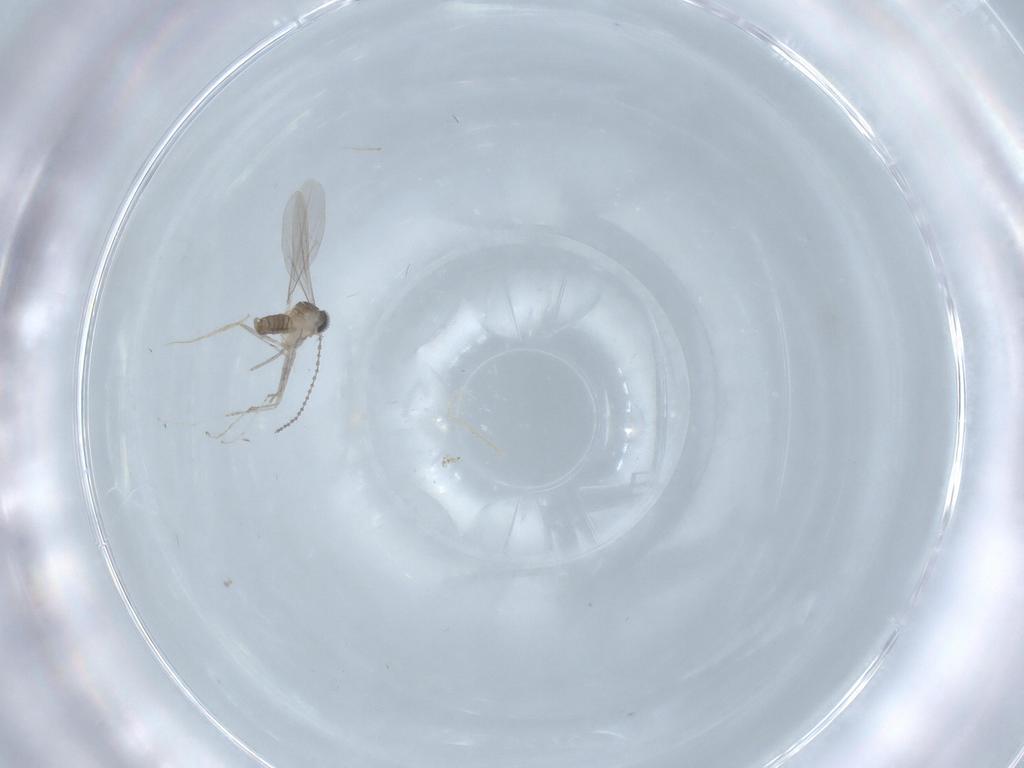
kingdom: Animalia
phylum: Arthropoda
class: Insecta
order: Diptera
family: Cecidomyiidae
